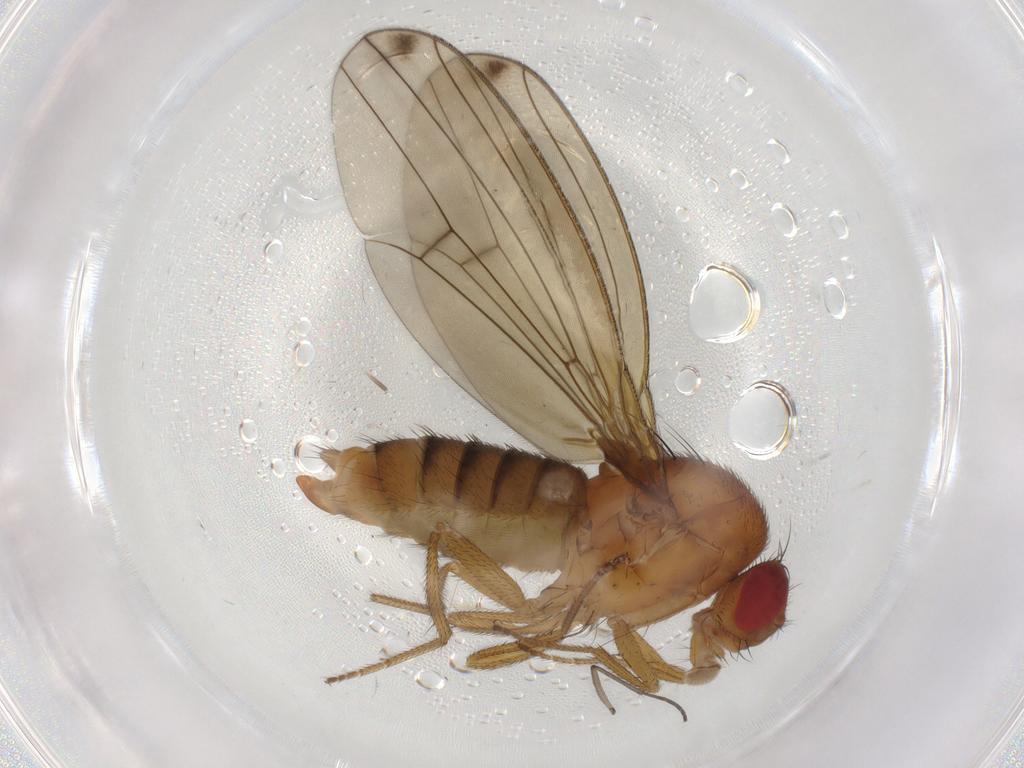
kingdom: Animalia
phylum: Arthropoda
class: Insecta
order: Diptera
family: Drosophilidae
